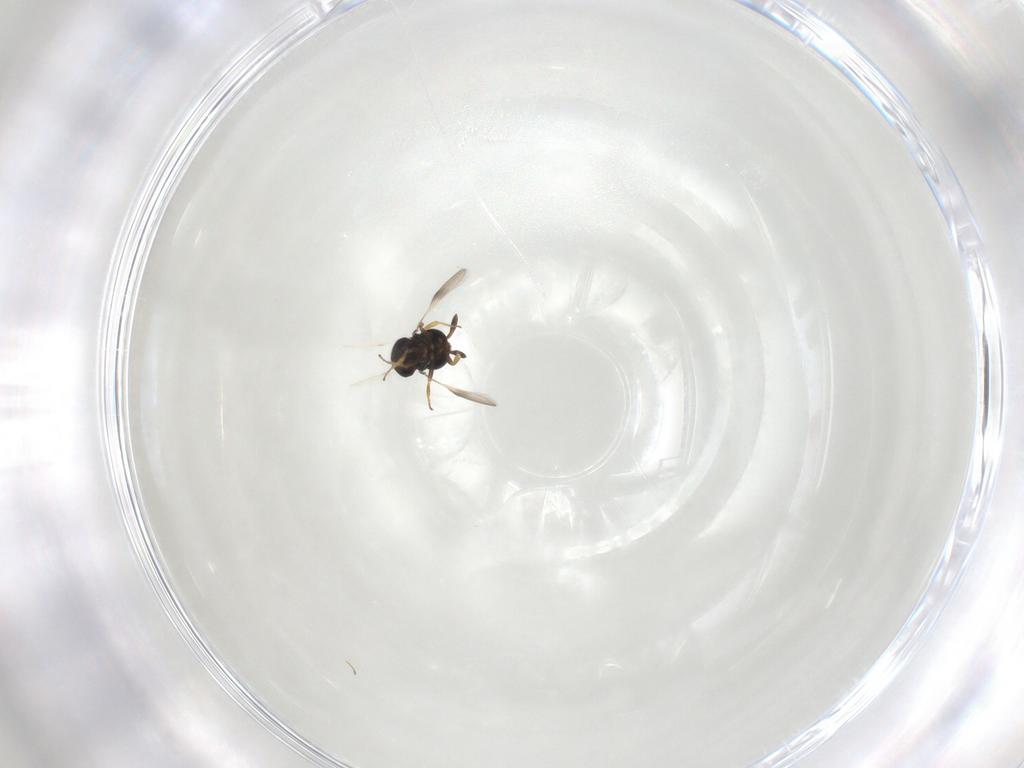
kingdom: Animalia
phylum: Arthropoda
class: Insecta
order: Hymenoptera
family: Scelionidae
